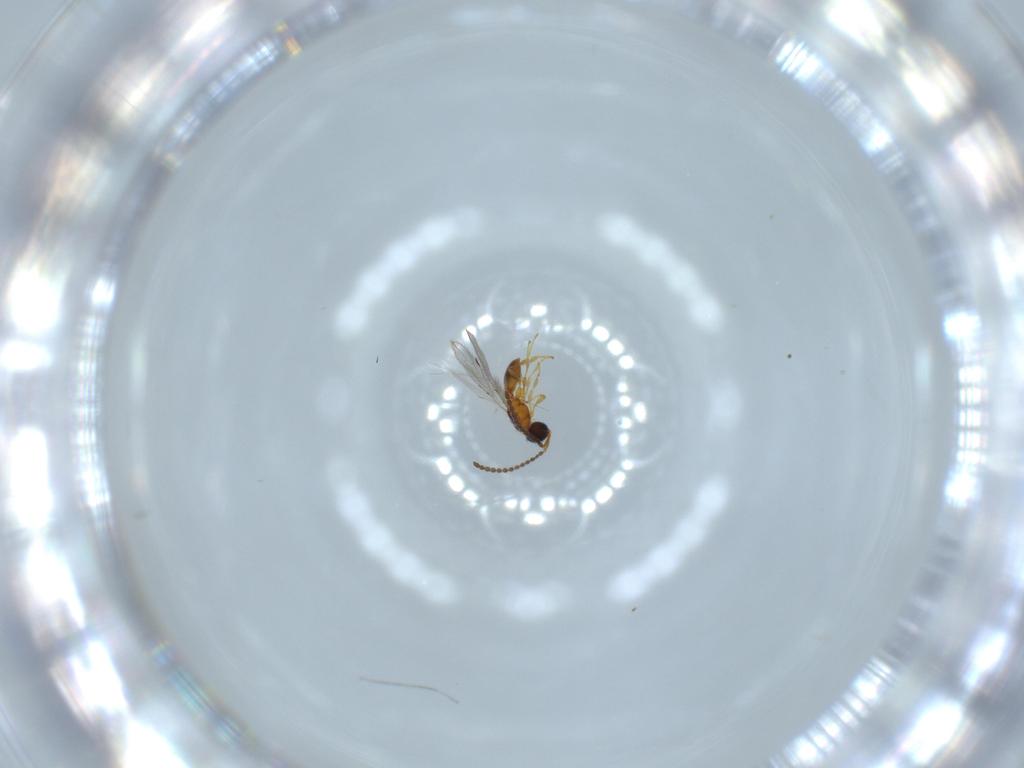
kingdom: Animalia
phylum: Arthropoda
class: Insecta
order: Hymenoptera
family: Diapriidae
